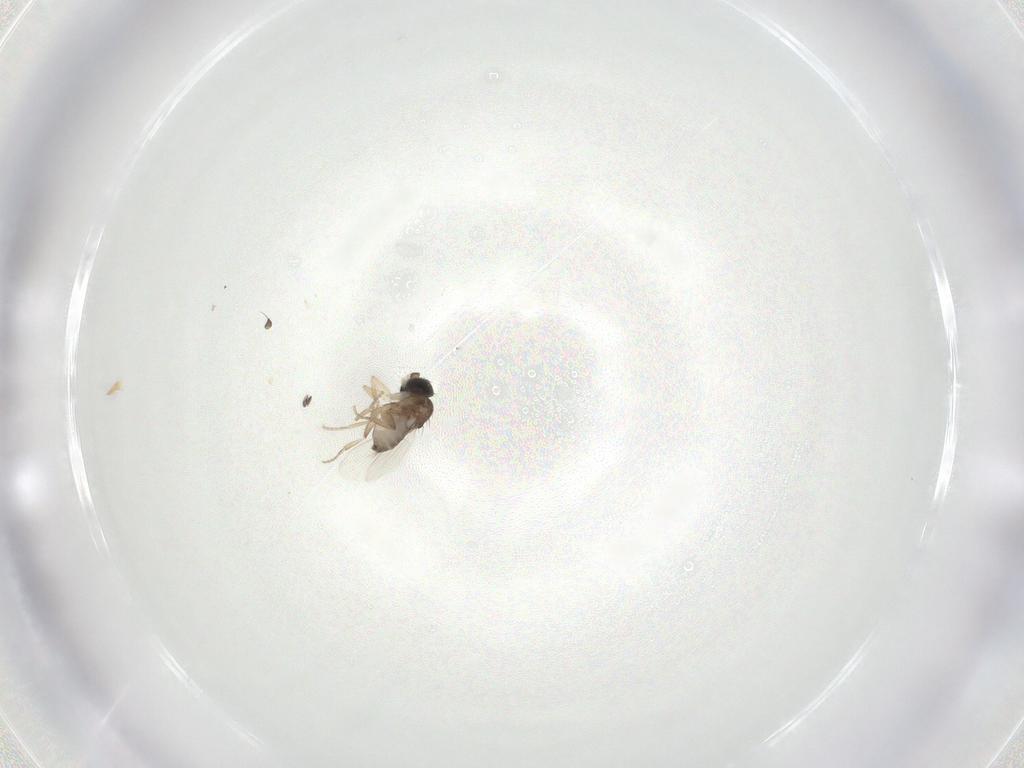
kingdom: Animalia
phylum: Arthropoda
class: Insecta
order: Diptera
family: Phoridae
